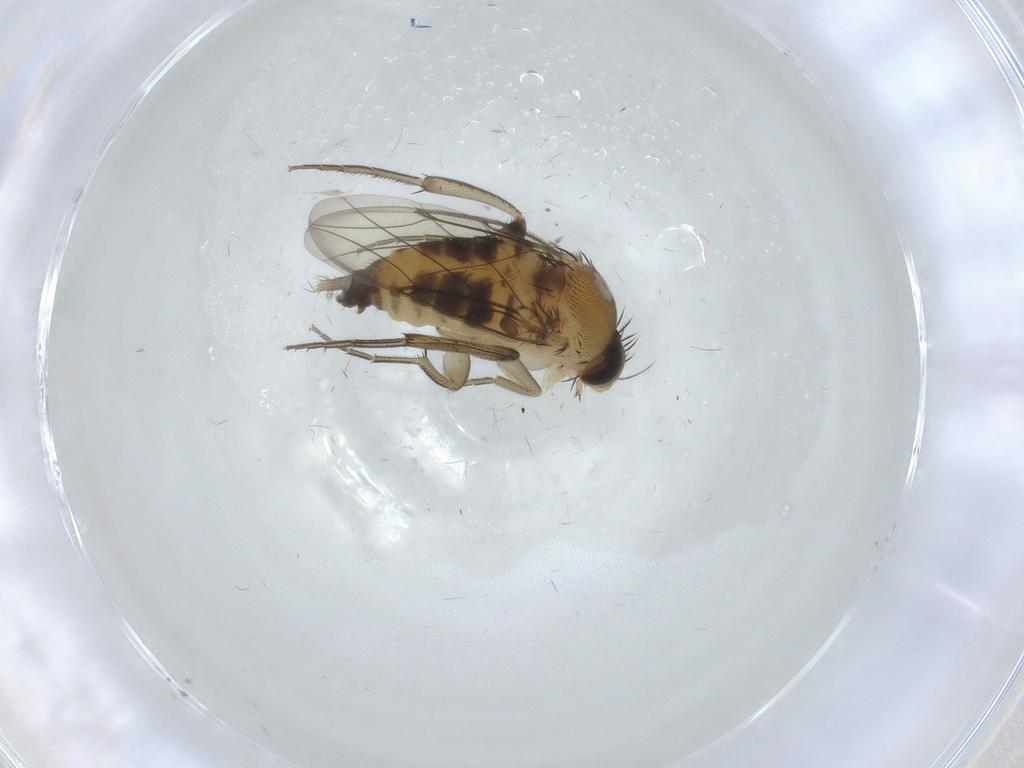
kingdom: Animalia
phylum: Arthropoda
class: Insecta
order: Diptera
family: Phoridae
